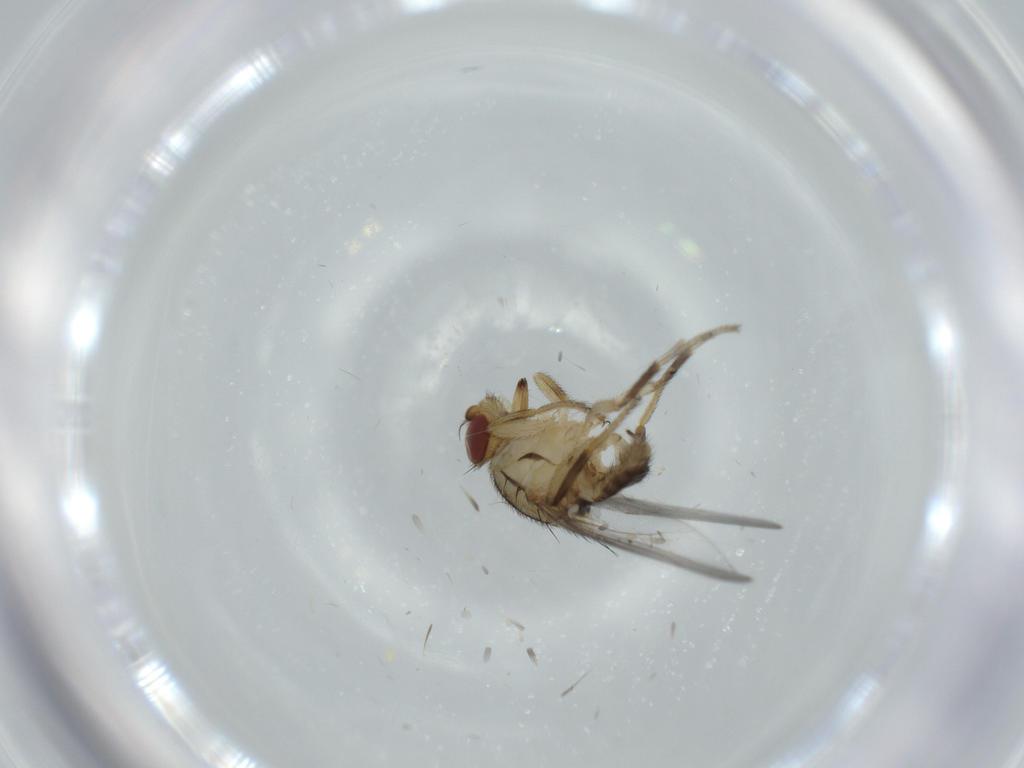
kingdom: Animalia
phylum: Arthropoda
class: Insecta
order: Diptera
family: Chloropidae
